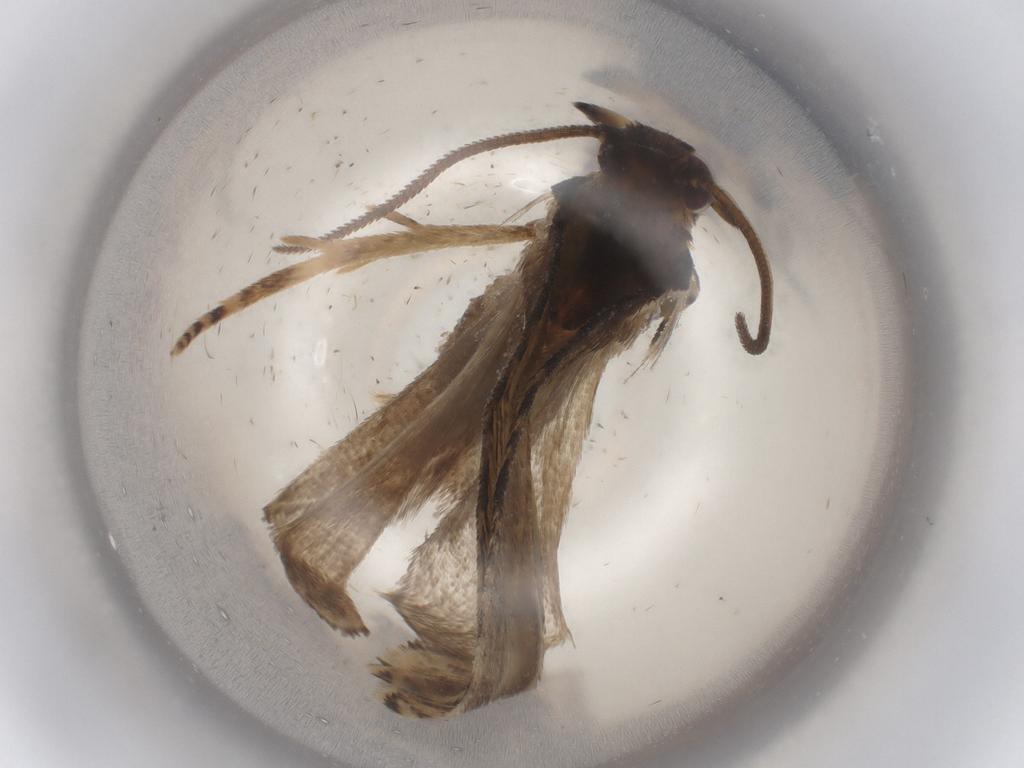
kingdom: Animalia
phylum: Arthropoda
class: Insecta
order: Lepidoptera
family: Tortricidae
